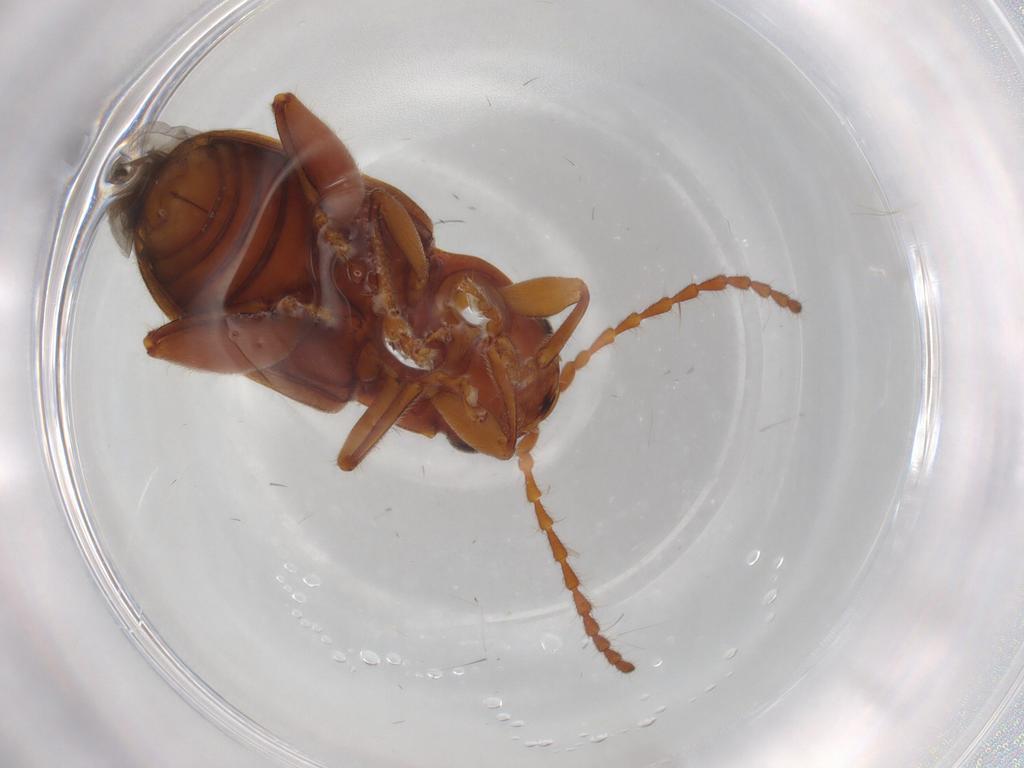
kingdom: Animalia
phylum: Arthropoda
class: Insecta
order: Coleoptera
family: Chrysomelidae
